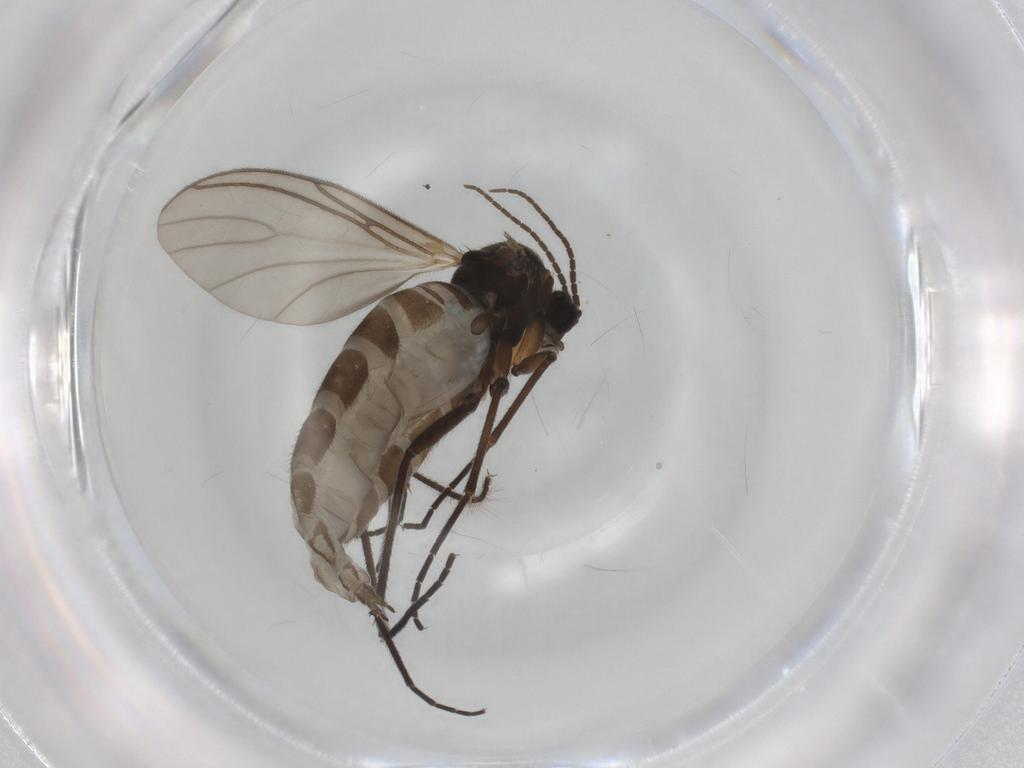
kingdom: Animalia
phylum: Arthropoda
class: Insecta
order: Diptera
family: Sciaridae
